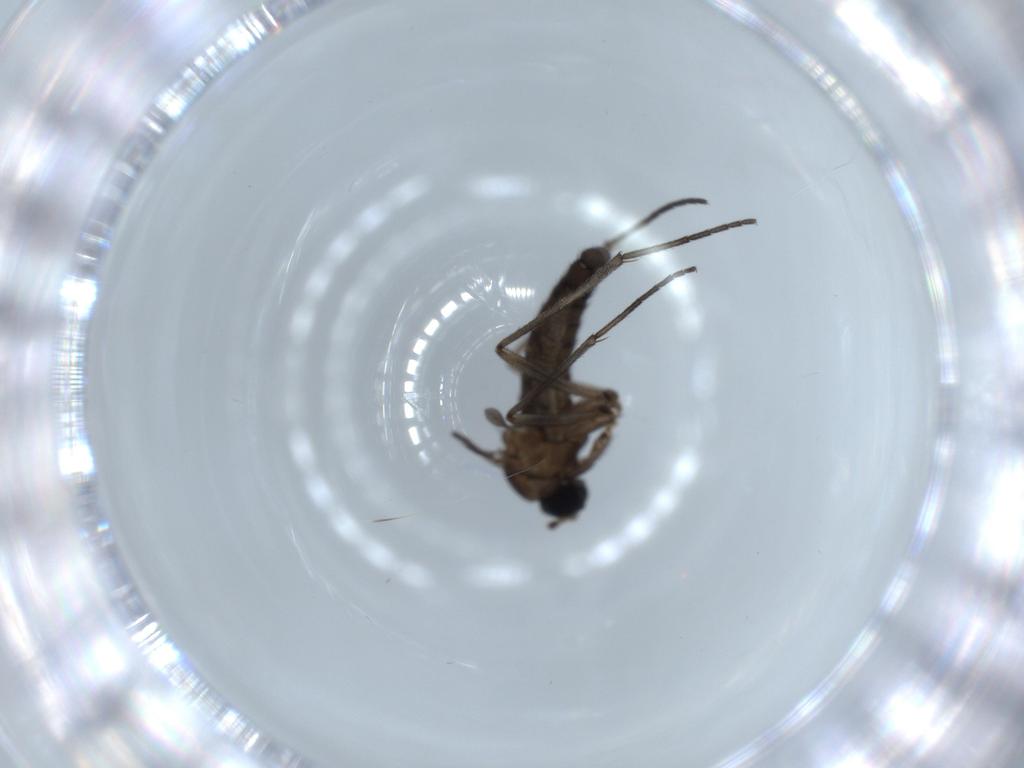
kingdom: Animalia
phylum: Arthropoda
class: Insecta
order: Diptera
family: Sciaridae
